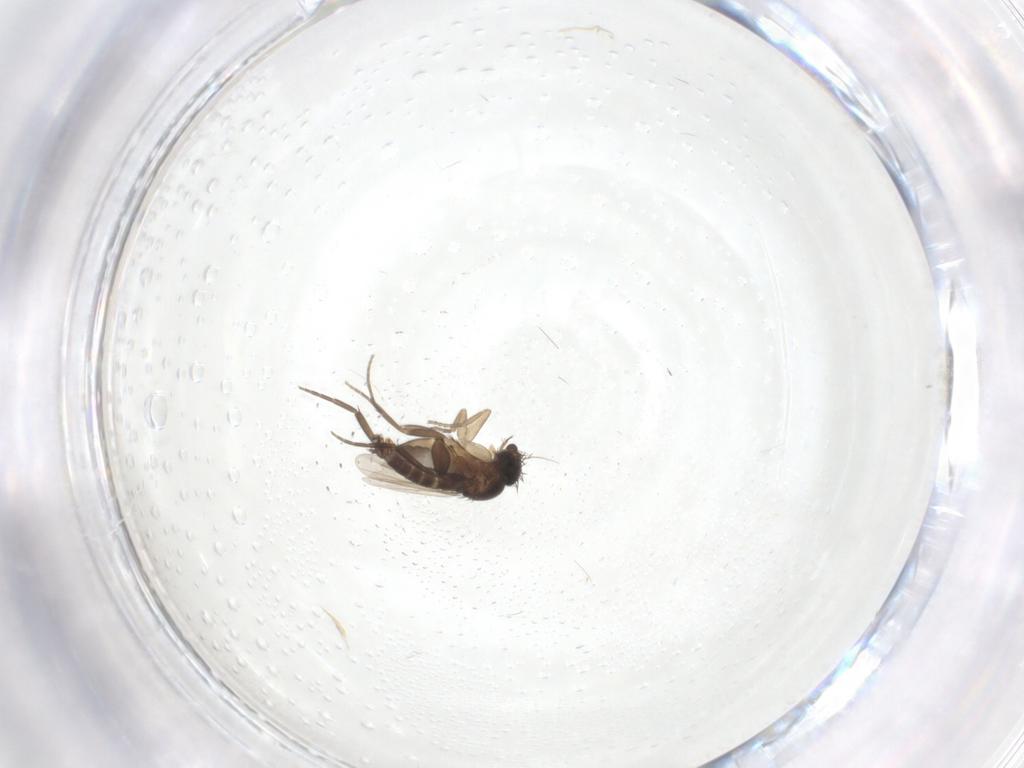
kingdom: Animalia
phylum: Arthropoda
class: Insecta
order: Diptera
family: Phoridae
